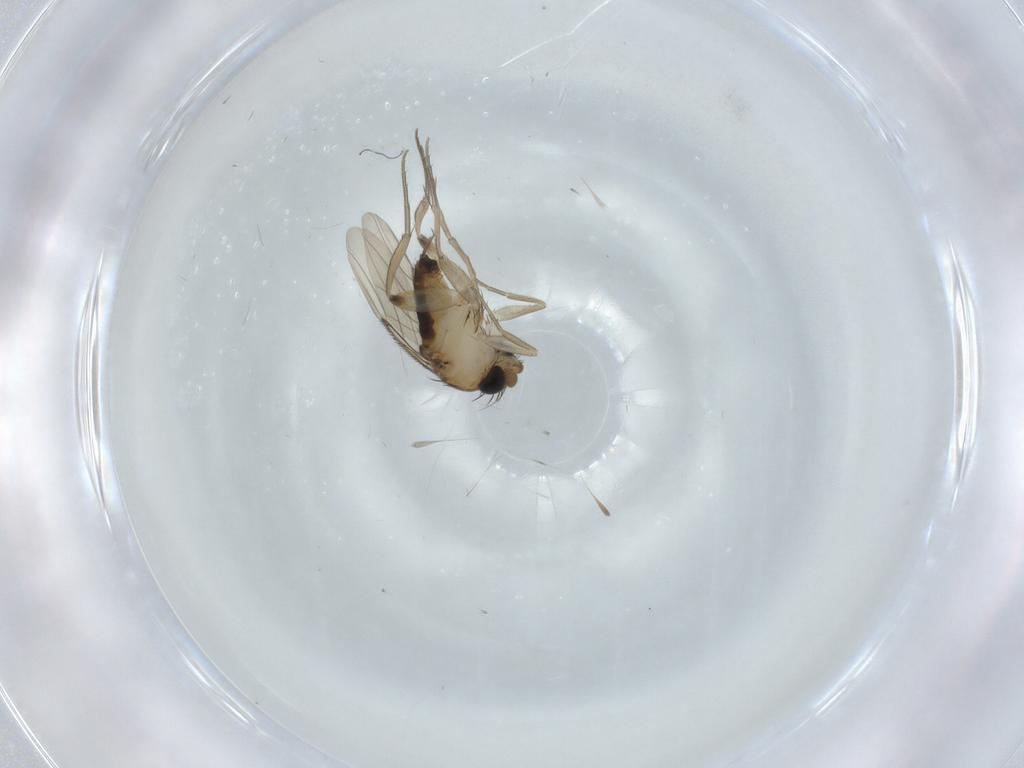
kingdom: Animalia
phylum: Arthropoda
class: Insecta
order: Diptera
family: Phoridae
